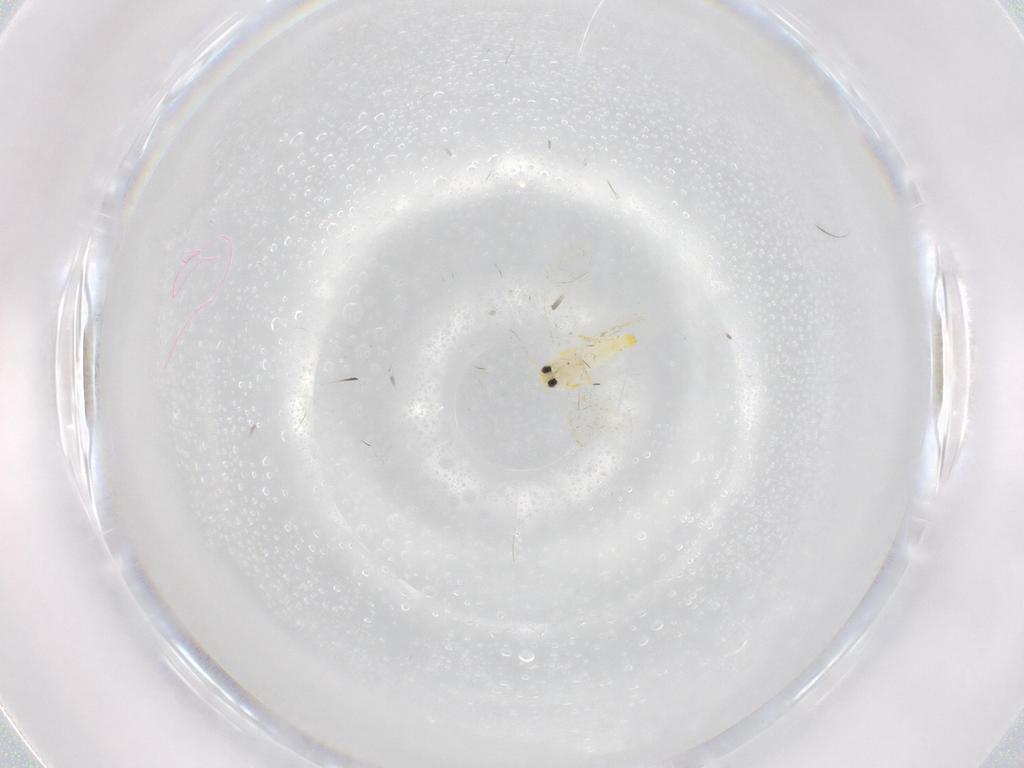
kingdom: Animalia
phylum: Arthropoda
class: Insecta
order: Hemiptera
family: Aleyrodidae
